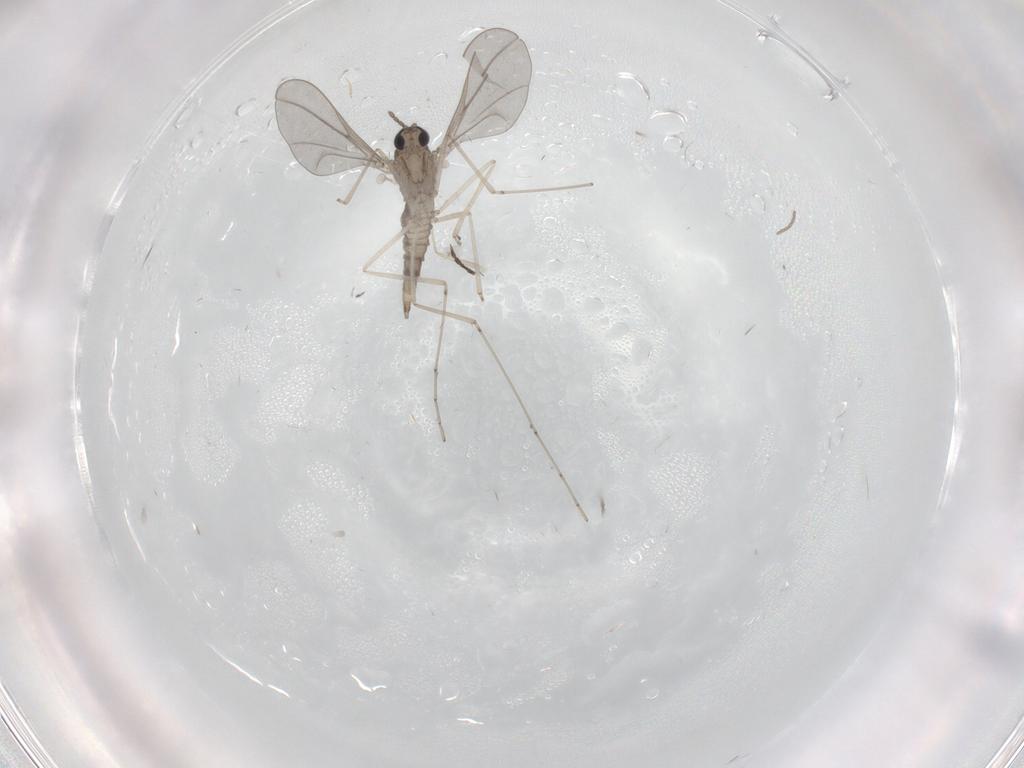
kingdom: Animalia
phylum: Arthropoda
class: Insecta
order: Diptera
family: Cecidomyiidae
